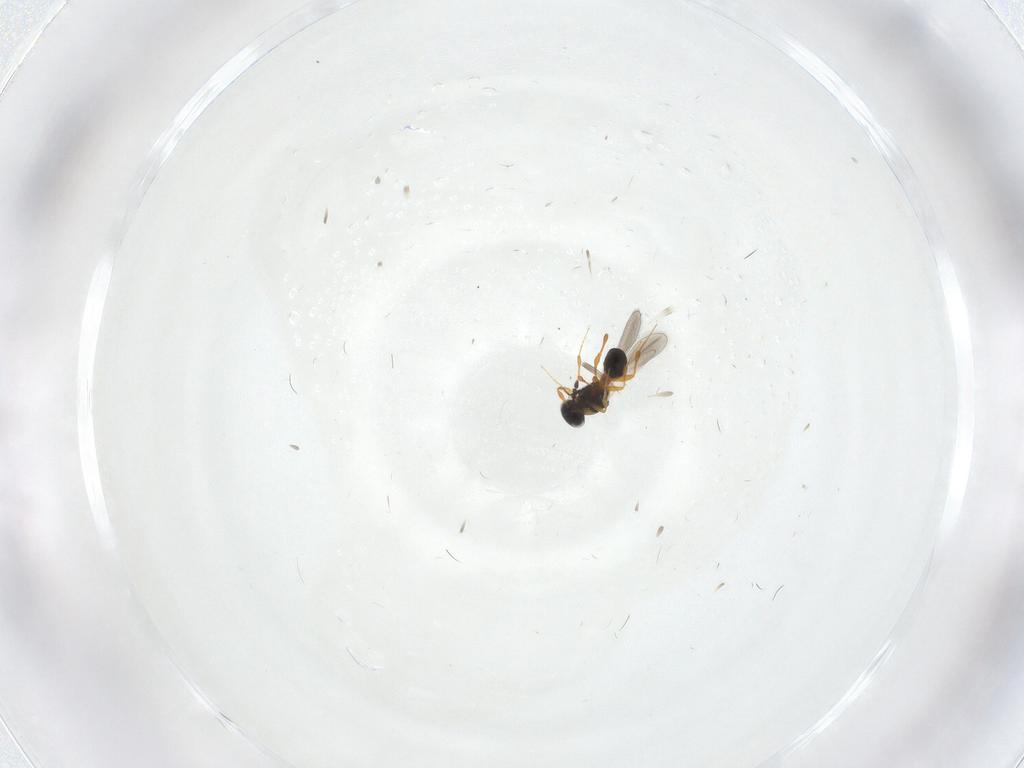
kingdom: Animalia
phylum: Arthropoda
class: Insecta
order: Hymenoptera
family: Platygastridae
